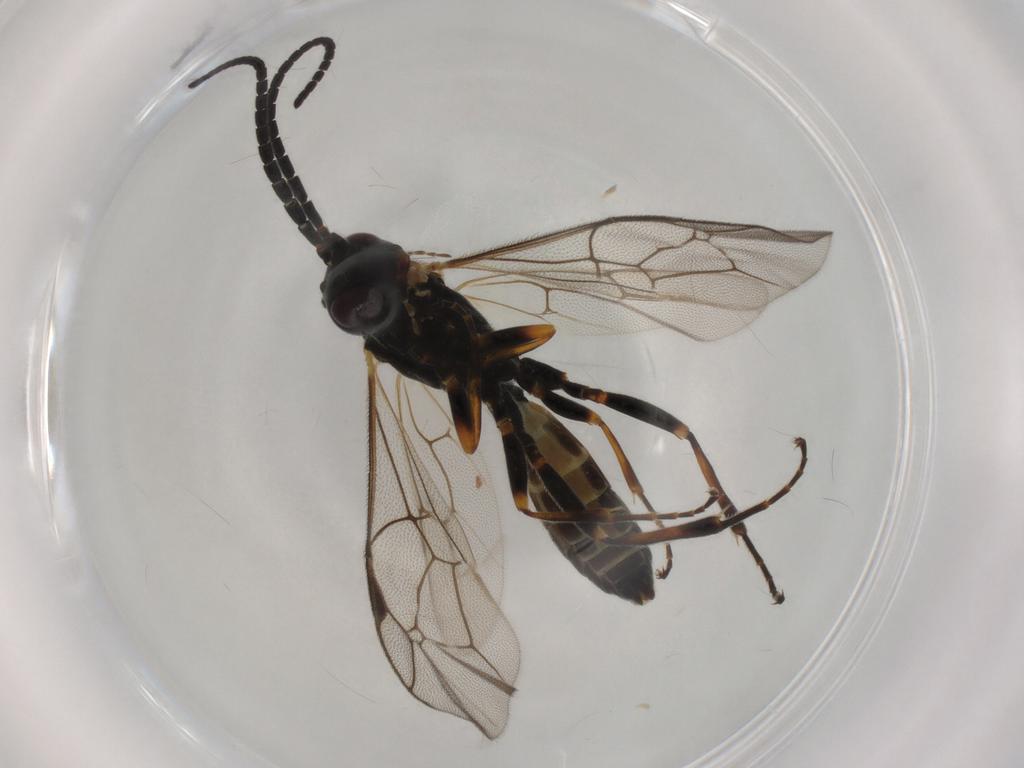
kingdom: Animalia
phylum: Arthropoda
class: Insecta
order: Hymenoptera
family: Ichneumonidae
